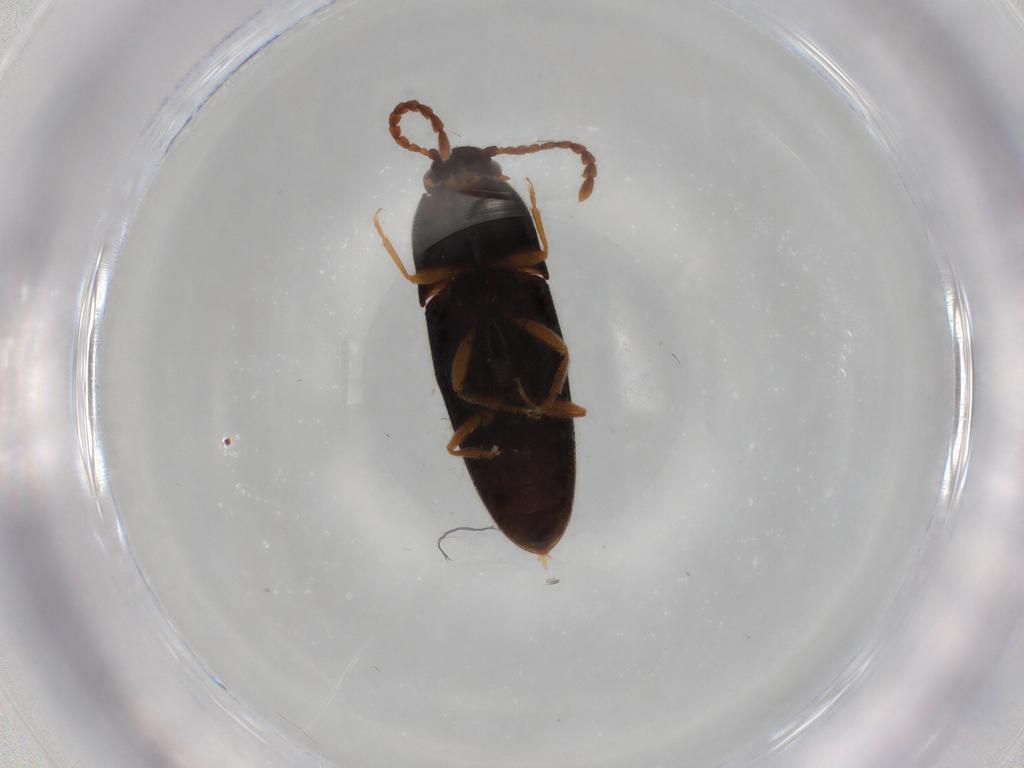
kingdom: Animalia
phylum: Arthropoda
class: Insecta
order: Coleoptera
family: Elateridae
